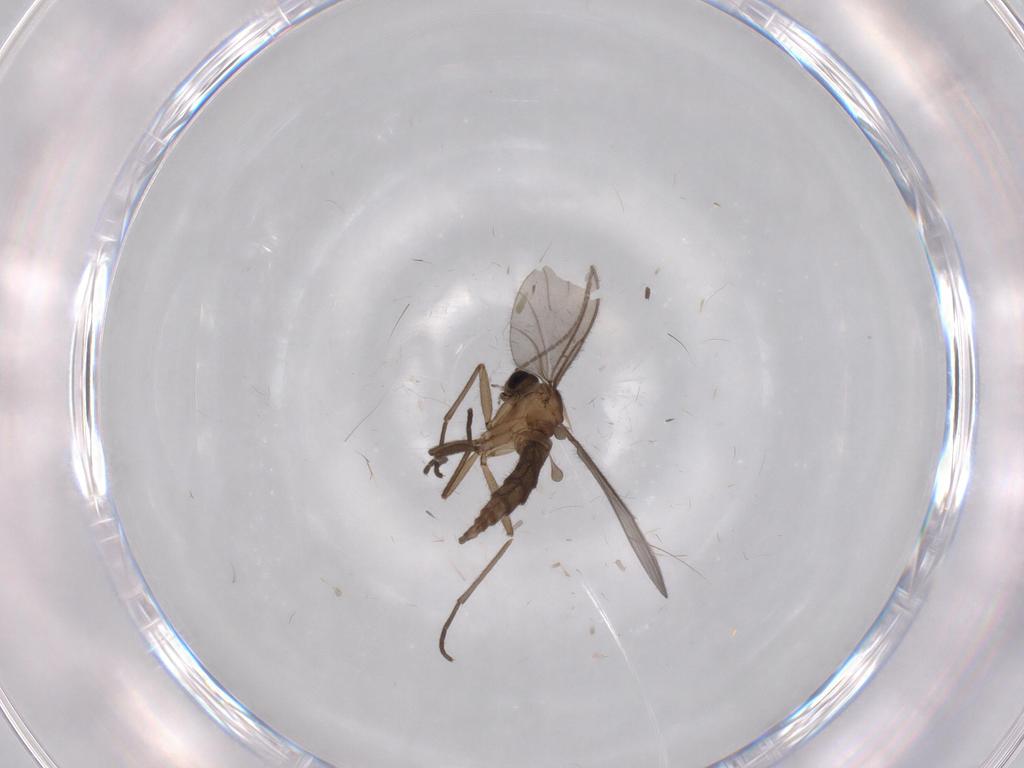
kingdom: Animalia
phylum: Arthropoda
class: Insecta
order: Diptera
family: Sciaridae
